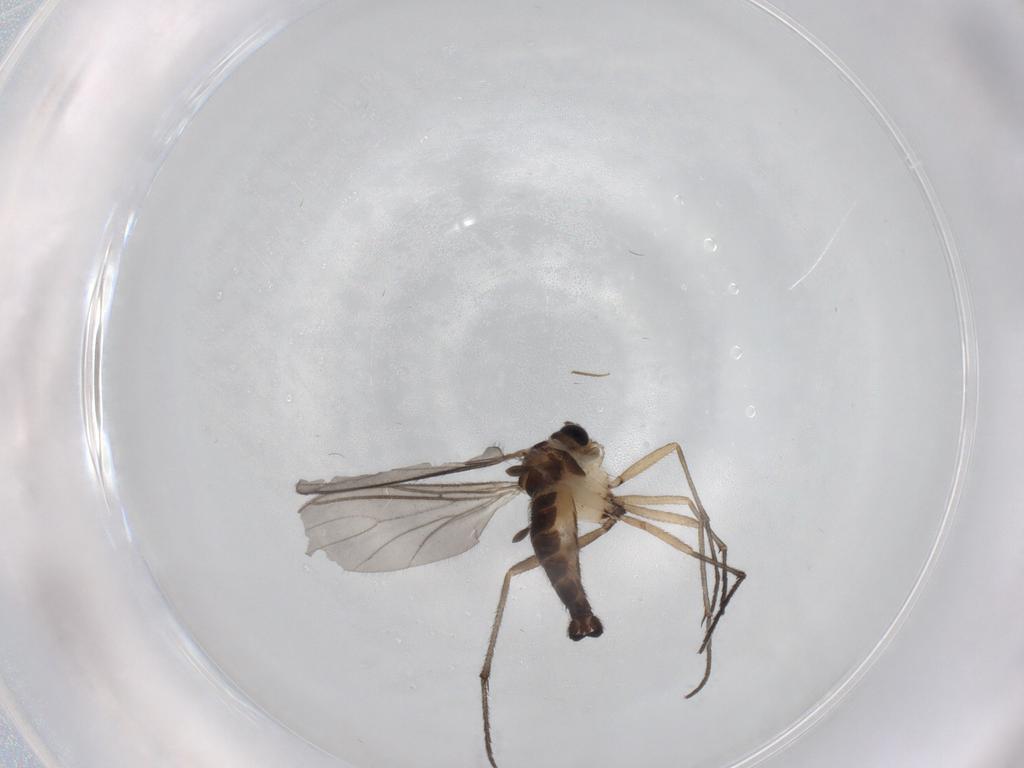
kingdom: Animalia
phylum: Arthropoda
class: Insecta
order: Diptera
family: Sciaridae
